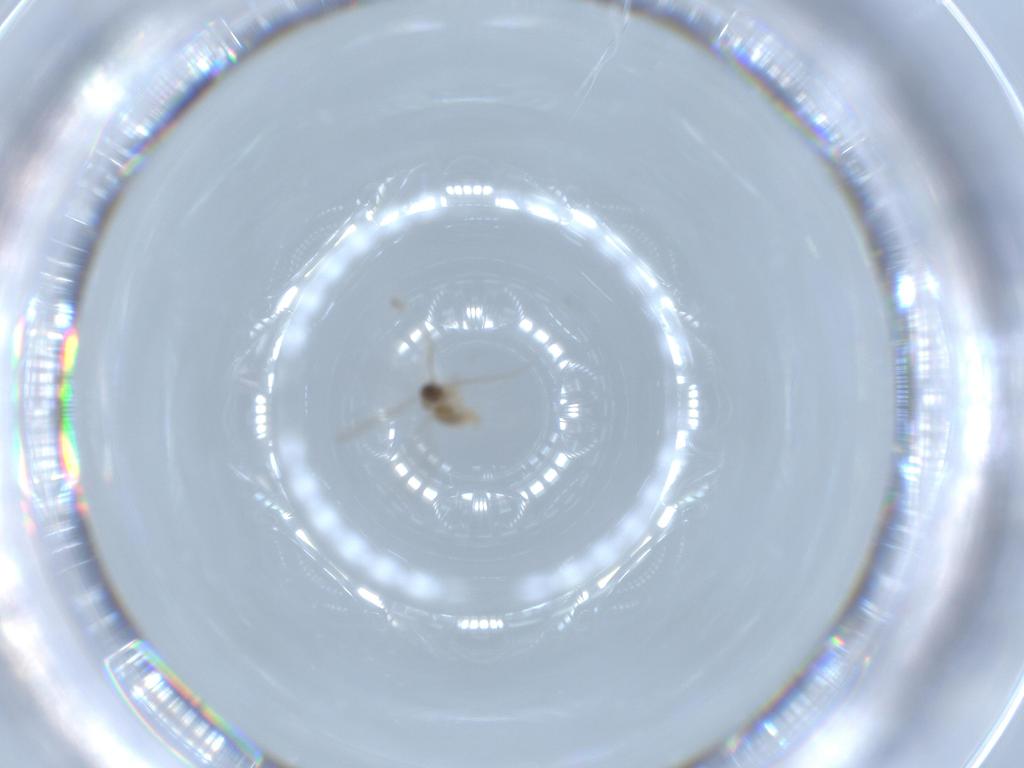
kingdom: Animalia
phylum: Arthropoda
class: Insecta
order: Diptera
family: Cecidomyiidae
